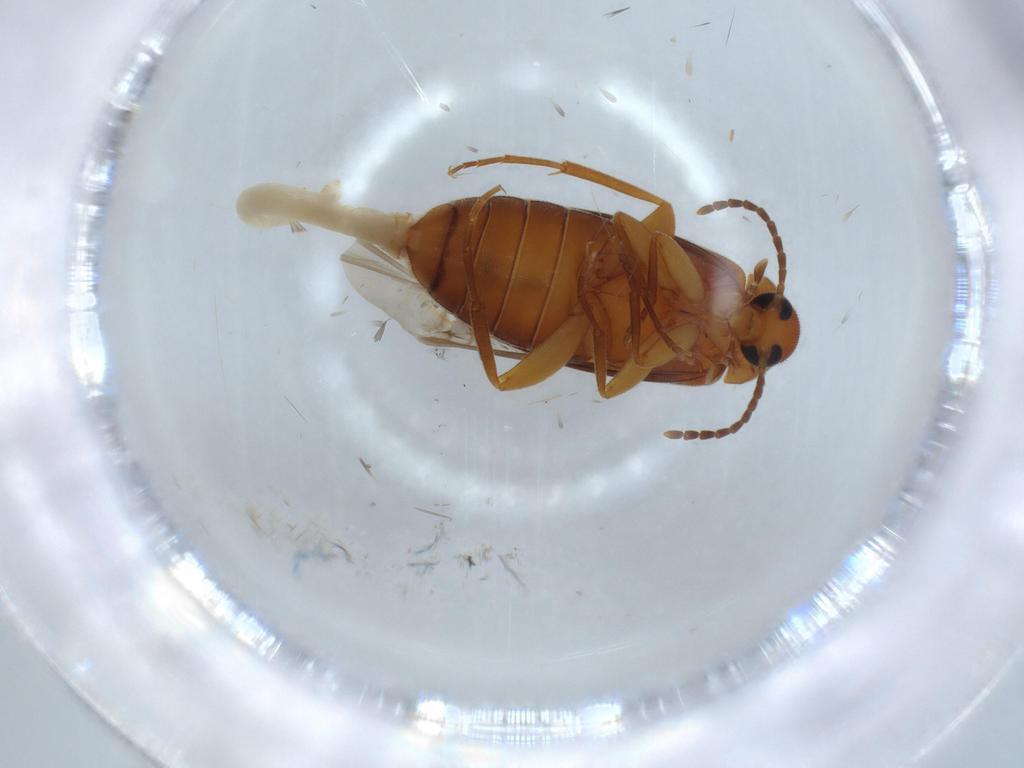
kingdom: Animalia
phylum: Arthropoda
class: Insecta
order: Coleoptera
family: Scraptiidae
